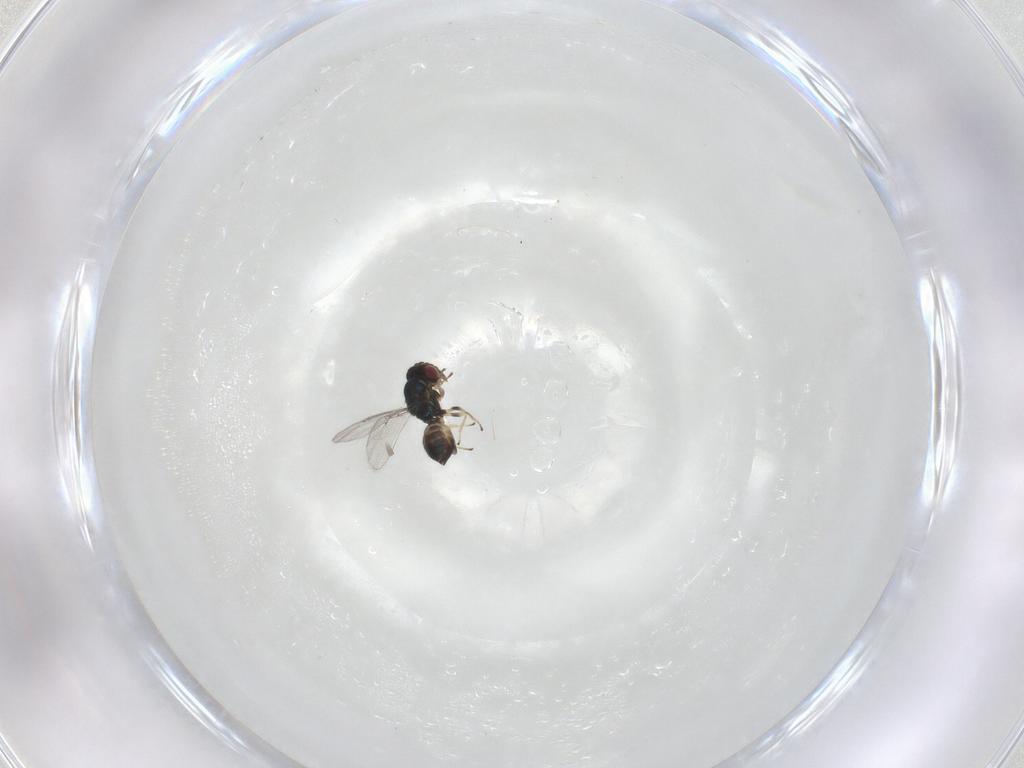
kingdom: Animalia
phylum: Arthropoda
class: Insecta
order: Hymenoptera
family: Eulophidae
